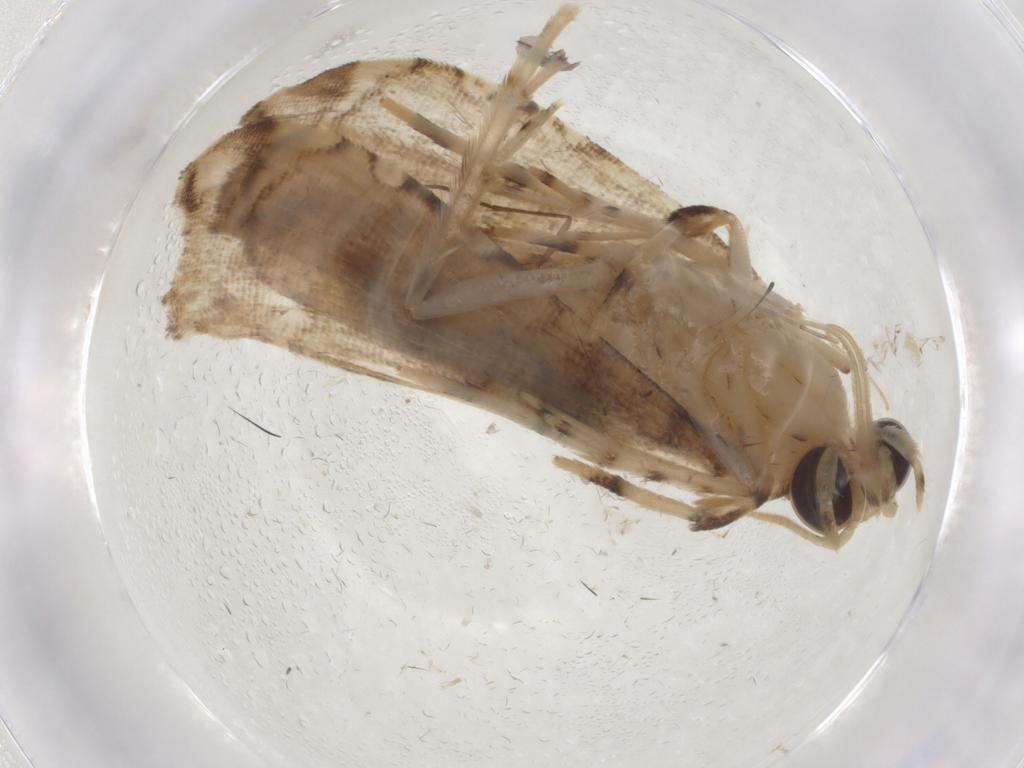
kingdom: Animalia
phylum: Arthropoda
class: Insecta
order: Lepidoptera
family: Crambidae
